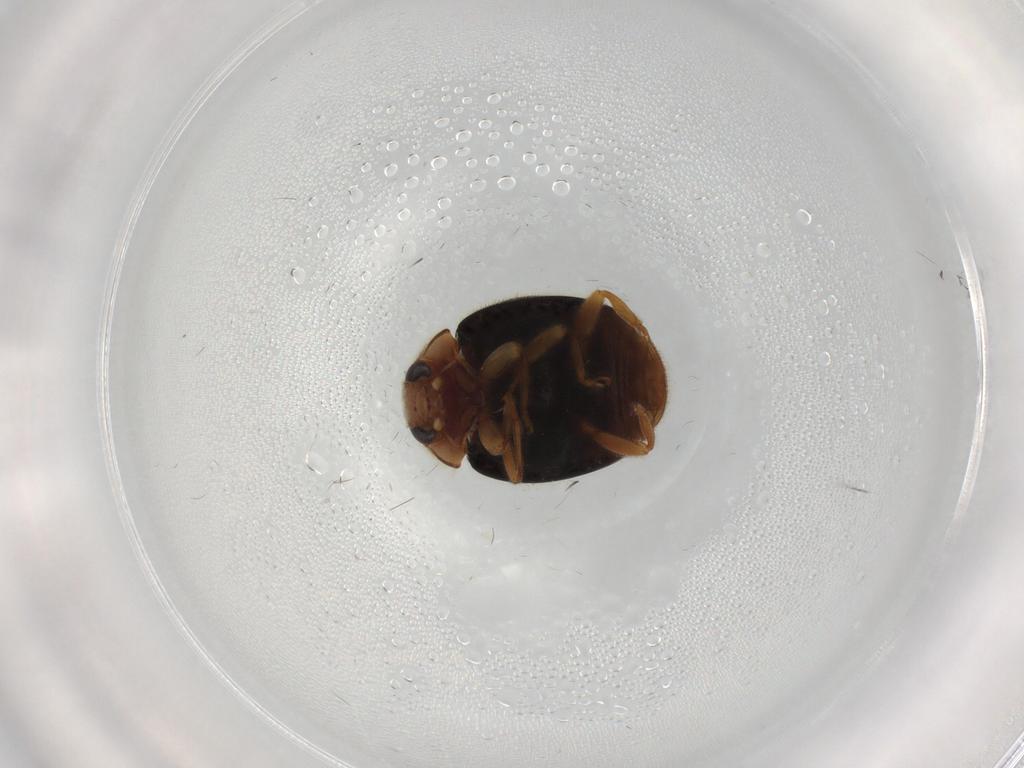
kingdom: Animalia
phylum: Arthropoda
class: Insecta
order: Coleoptera
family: Coccinellidae
